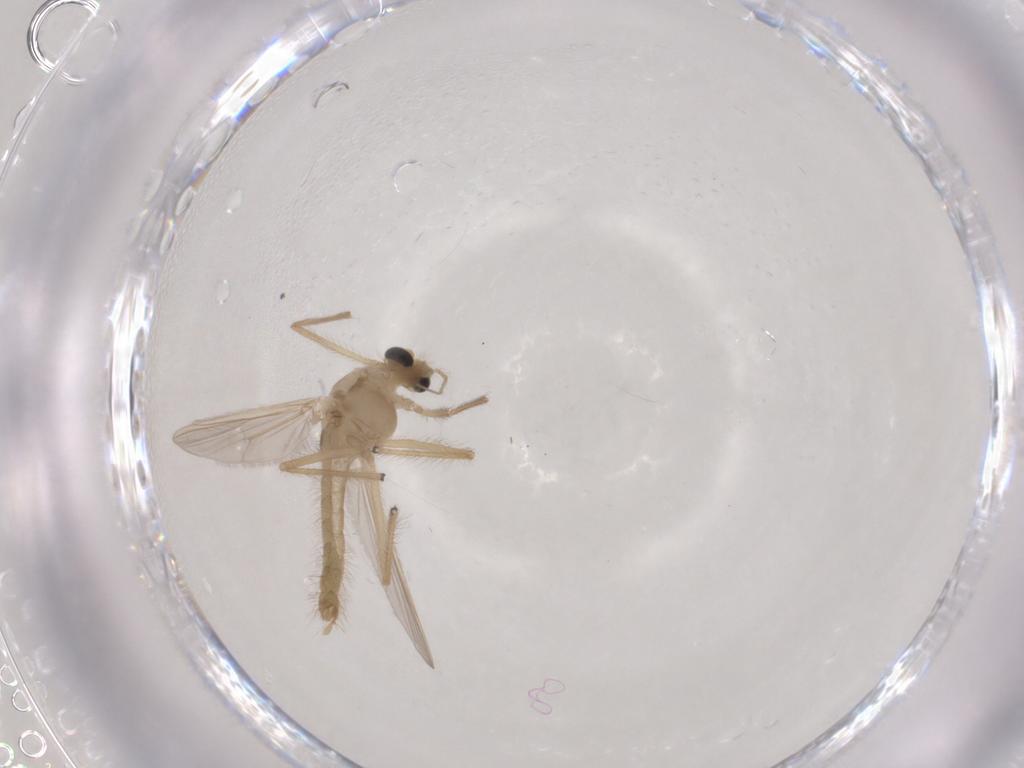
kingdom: Animalia
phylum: Arthropoda
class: Insecta
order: Diptera
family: Chironomidae
